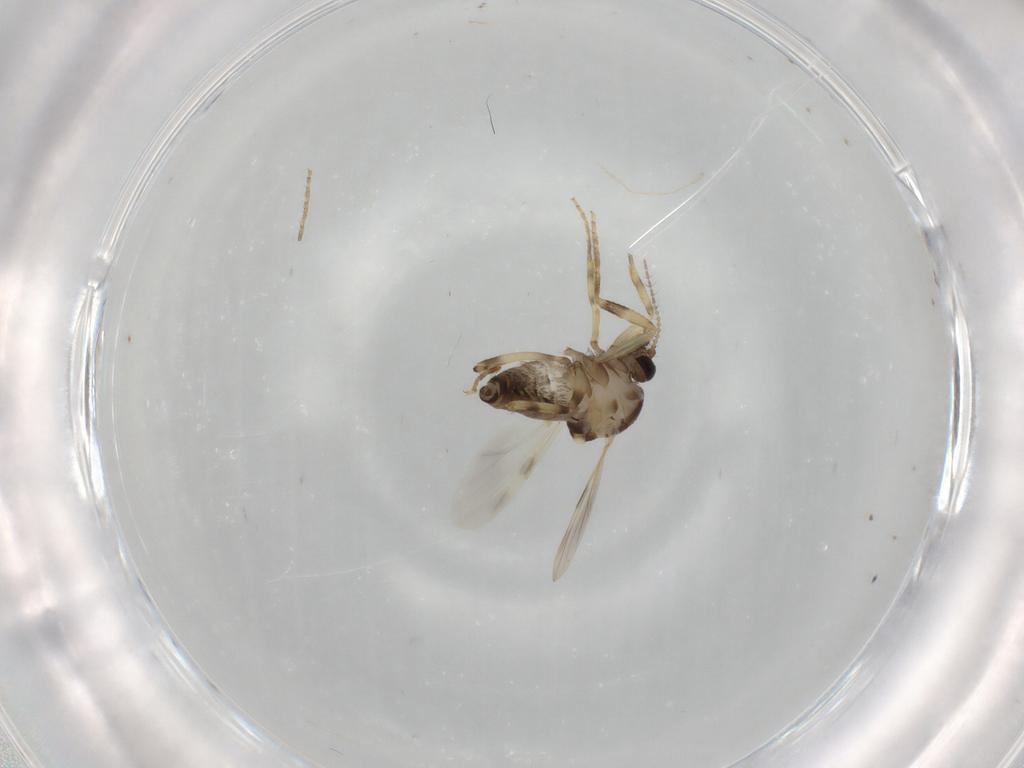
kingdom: Animalia
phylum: Arthropoda
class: Insecta
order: Diptera
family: Ceratopogonidae
